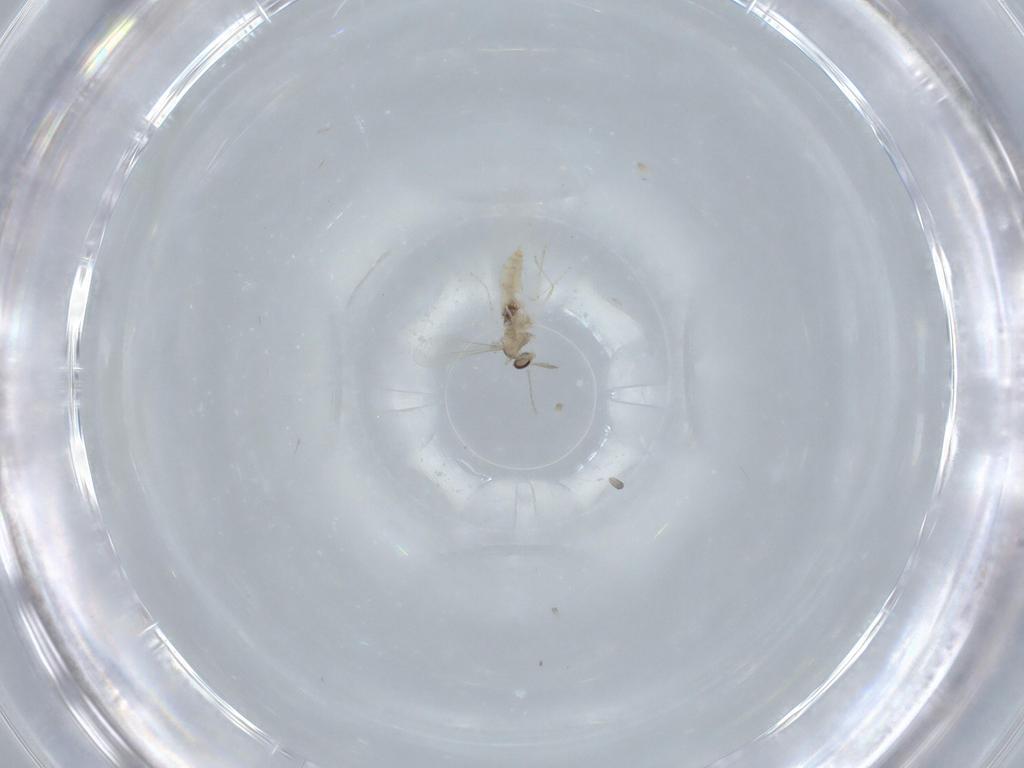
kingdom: Animalia
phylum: Arthropoda
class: Insecta
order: Diptera
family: Cecidomyiidae
